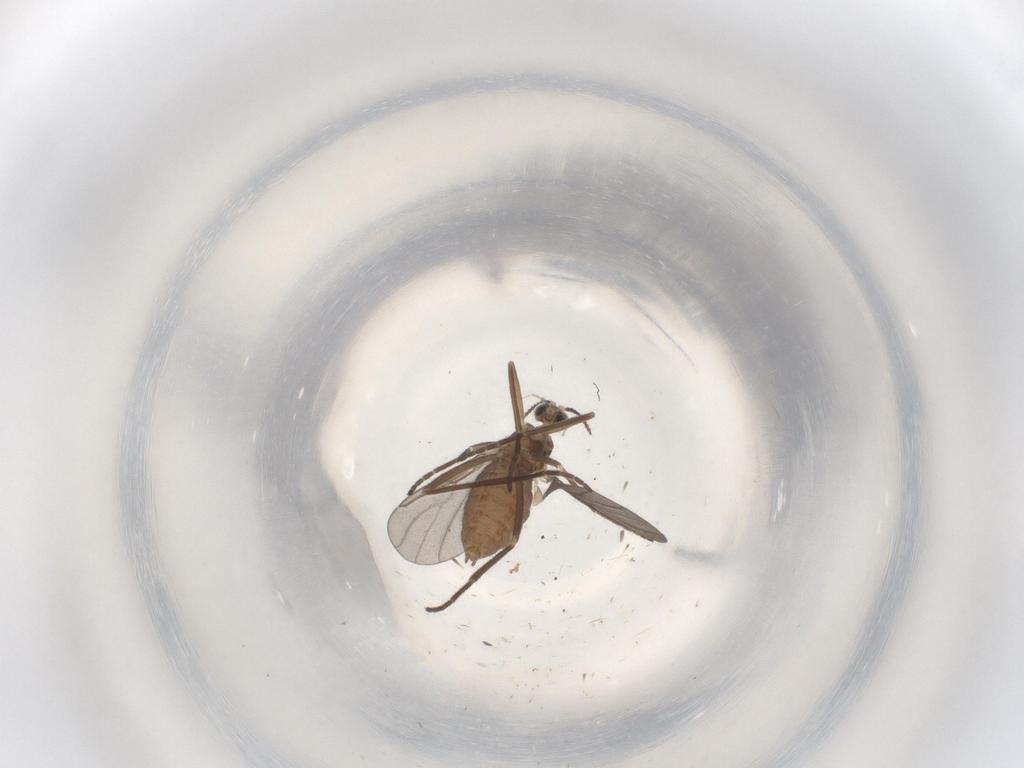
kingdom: Animalia
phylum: Arthropoda
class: Insecta
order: Diptera
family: Cecidomyiidae
